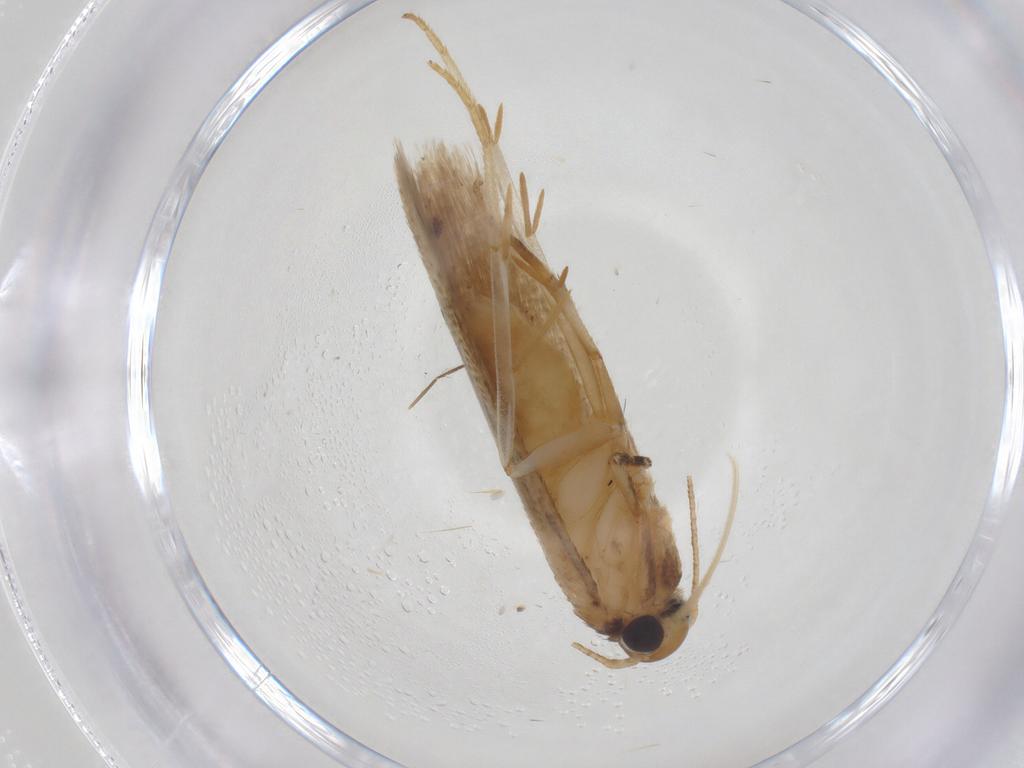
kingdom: Animalia
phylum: Arthropoda
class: Insecta
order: Lepidoptera
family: Oecophoridae
